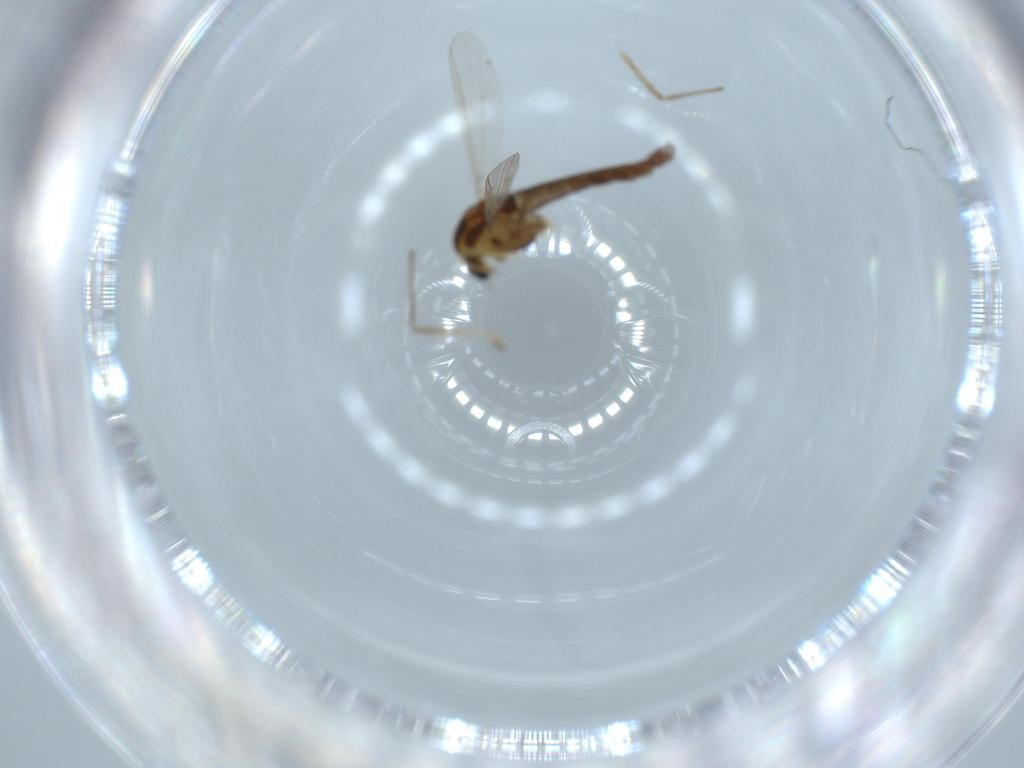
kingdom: Animalia
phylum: Arthropoda
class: Insecta
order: Diptera
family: Chironomidae
